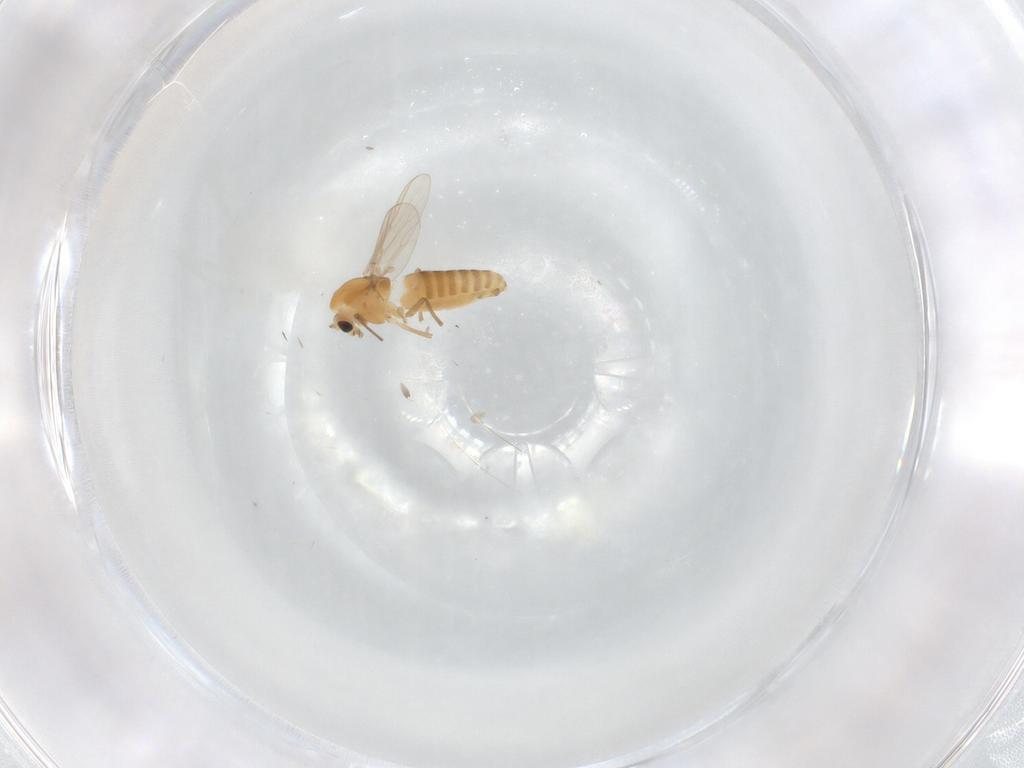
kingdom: Animalia
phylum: Arthropoda
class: Insecta
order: Diptera
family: Chironomidae
